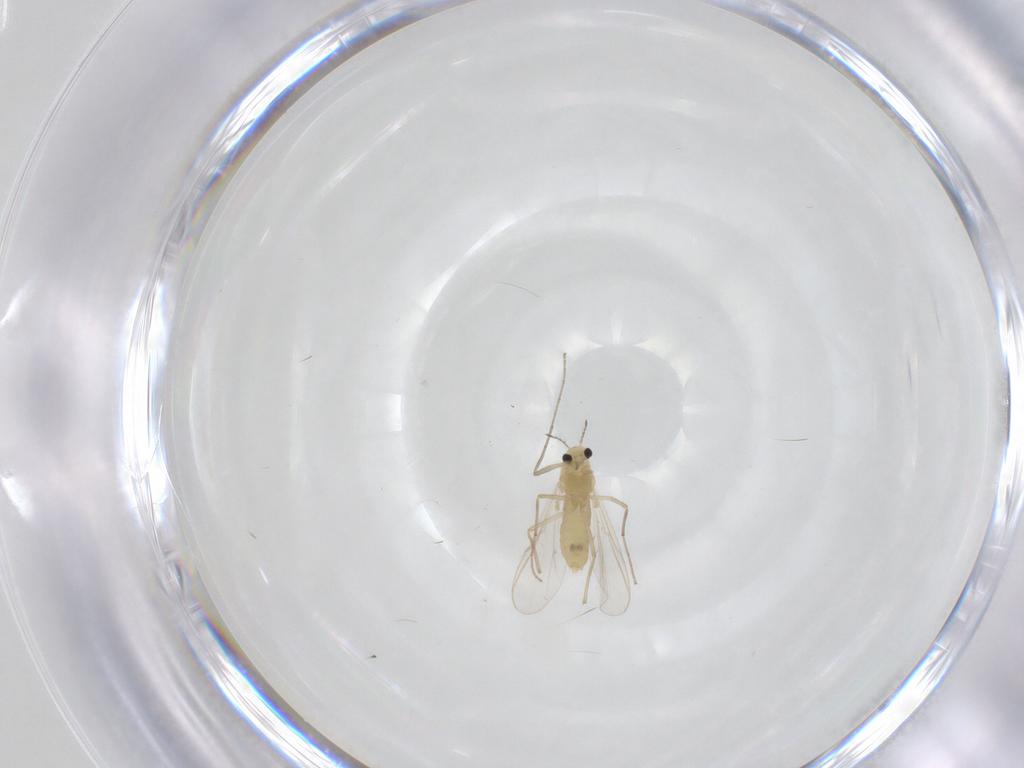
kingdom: Animalia
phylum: Arthropoda
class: Insecta
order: Diptera
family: Chironomidae
